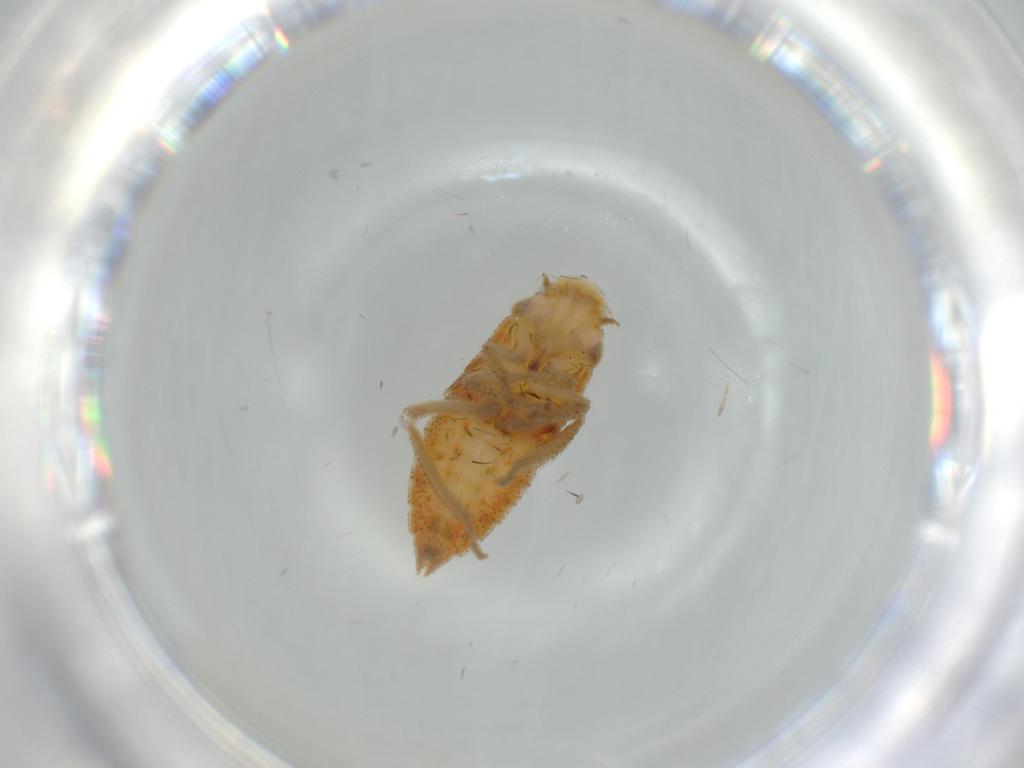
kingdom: Animalia
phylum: Arthropoda
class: Insecta
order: Hemiptera
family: Cicadellidae
